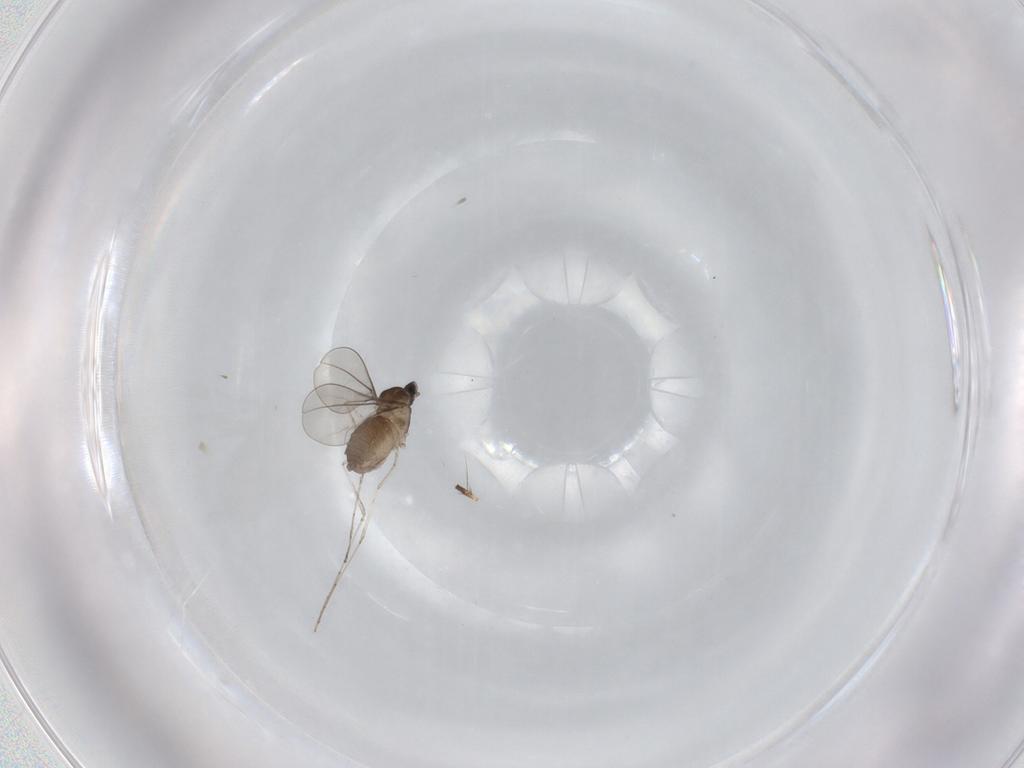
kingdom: Animalia
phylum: Arthropoda
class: Insecta
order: Diptera
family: Cecidomyiidae
